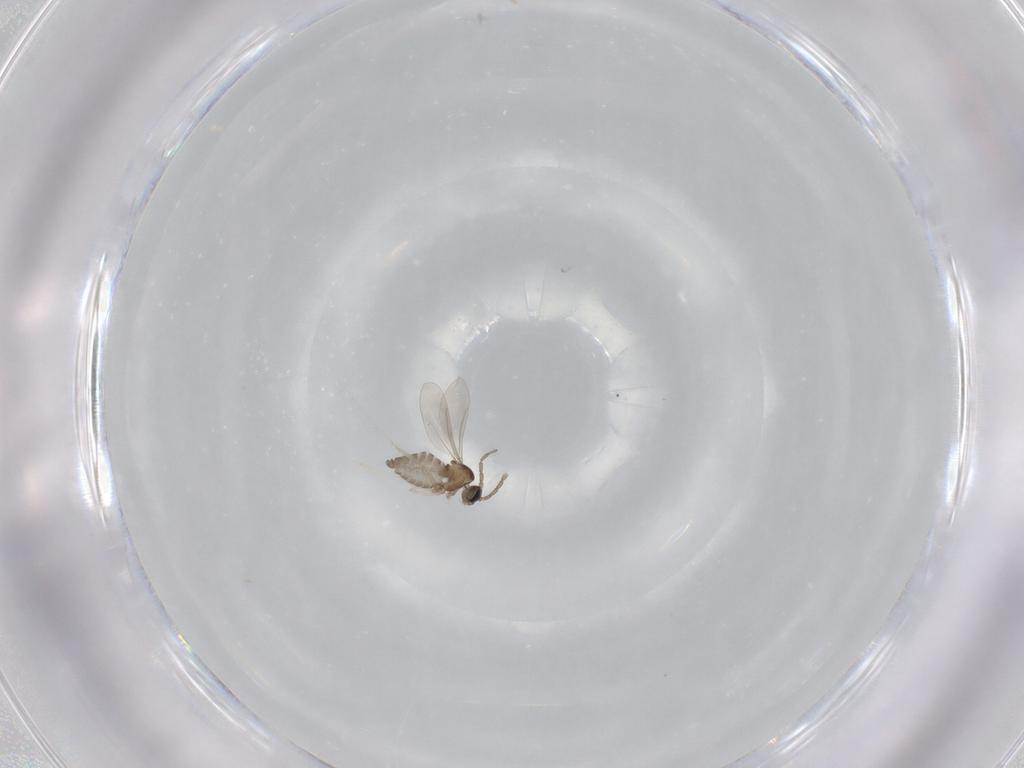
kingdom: Animalia
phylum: Arthropoda
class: Insecta
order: Diptera
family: Cecidomyiidae
